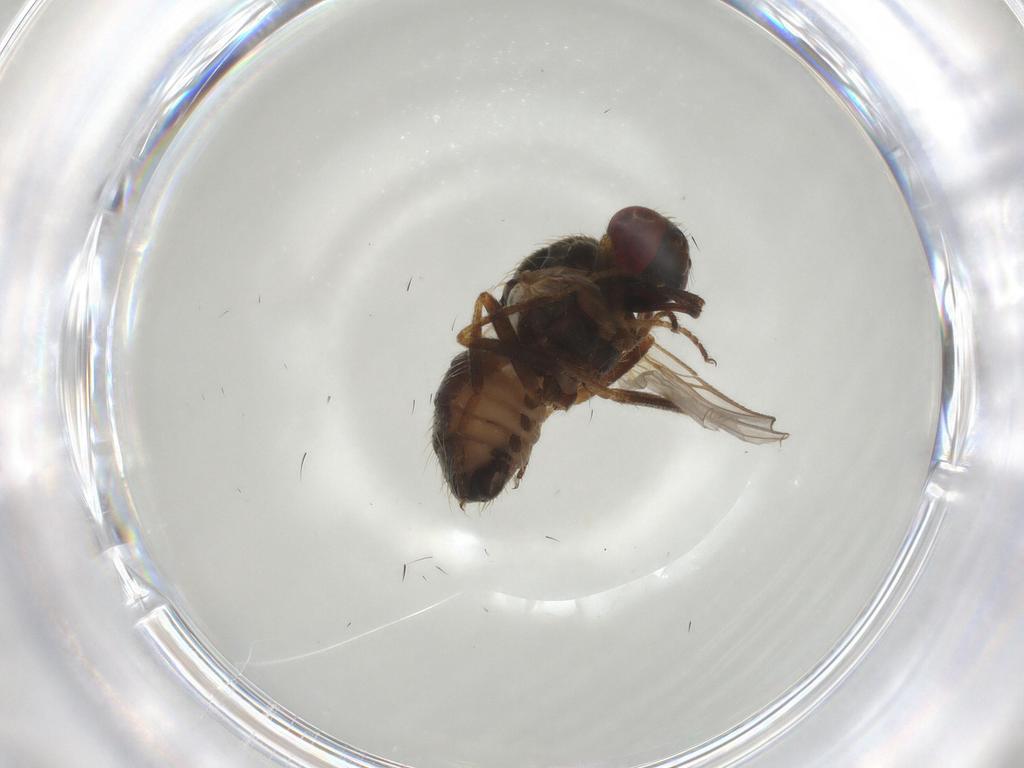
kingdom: Animalia
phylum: Arthropoda
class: Insecta
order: Diptera
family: Muscidae
